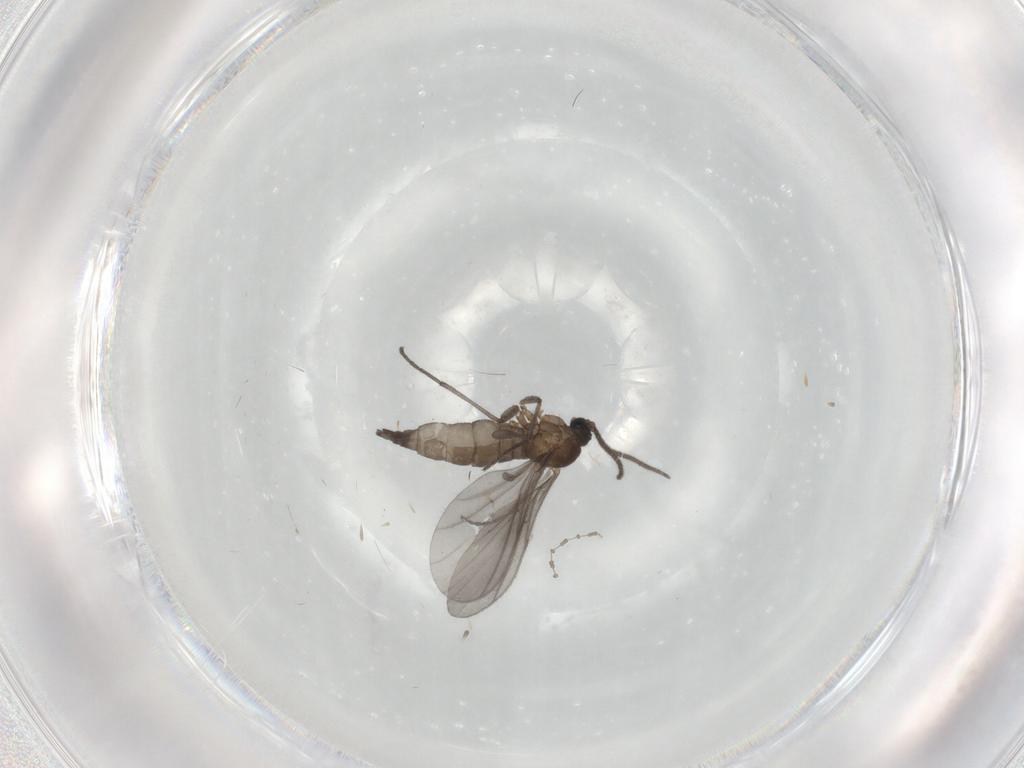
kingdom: Animalia
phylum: Arthropoda
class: Insecta
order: Diptera
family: Sciaridae
